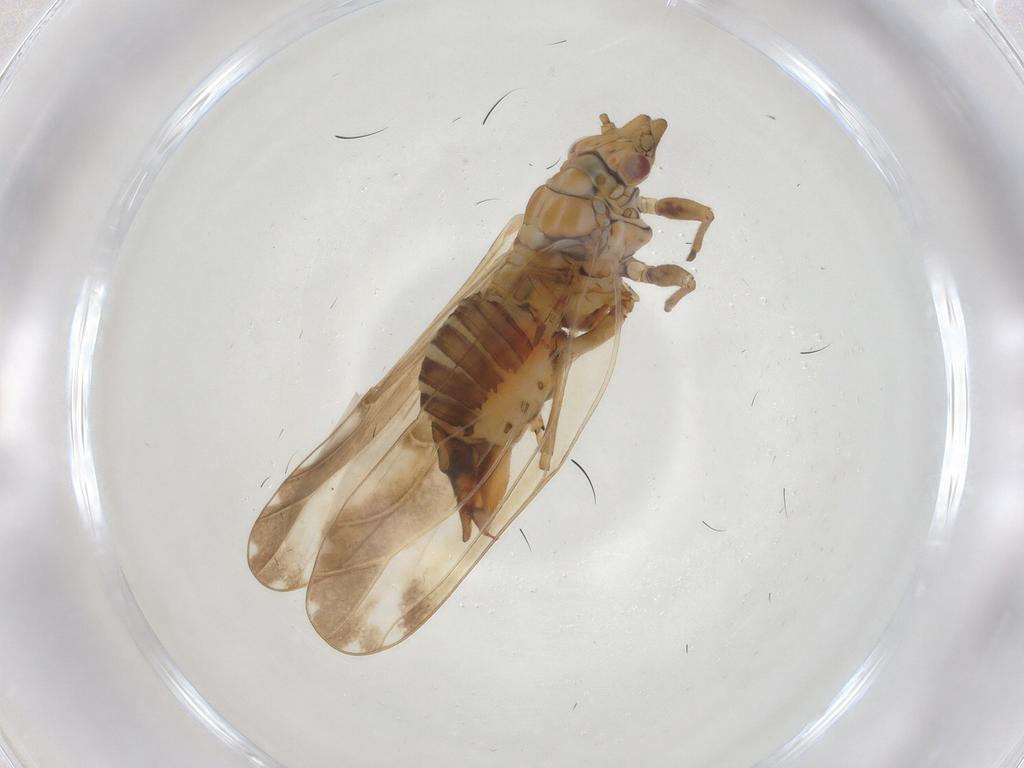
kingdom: Animalia
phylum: Arthropoda
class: Insecta
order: Hemiptera
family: Psyllidae
